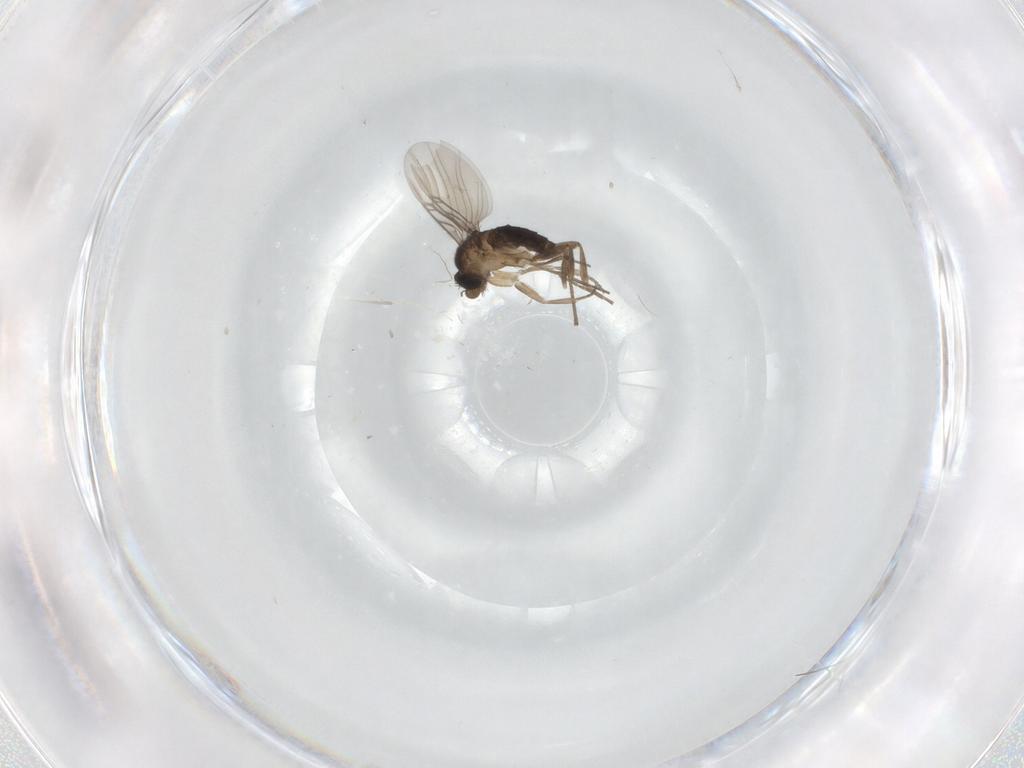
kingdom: Animalia
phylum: Arthropoda
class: Insecta
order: Diptera
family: Phoridae
